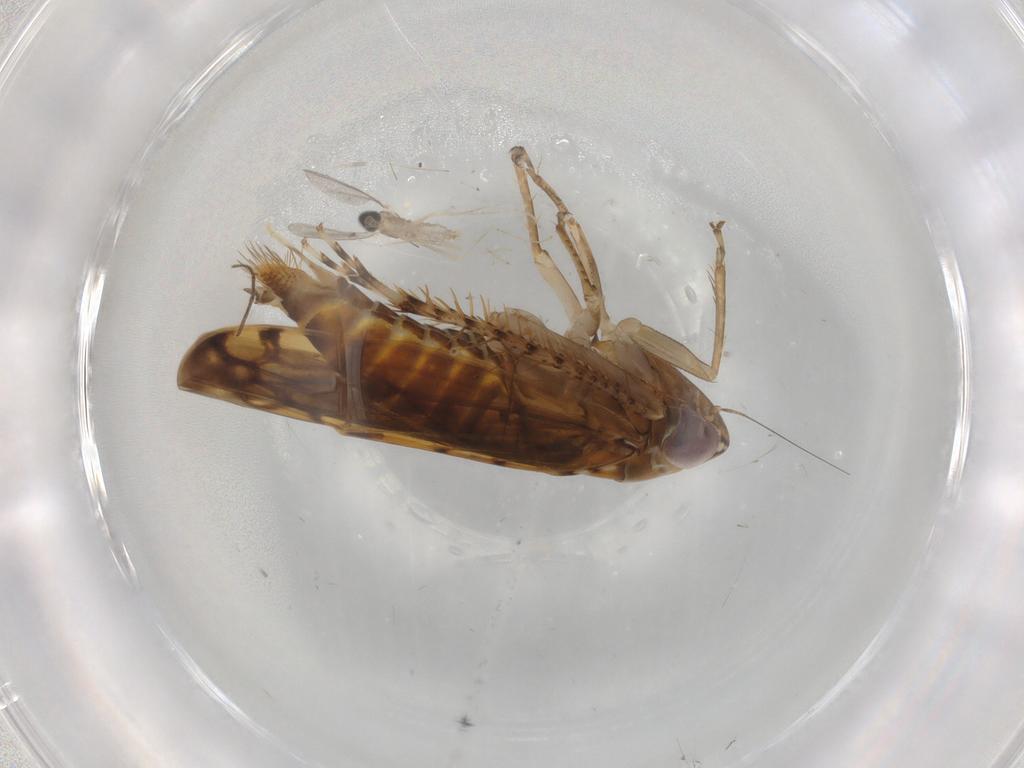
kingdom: Animalia
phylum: Arthropoda
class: Insecta
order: Hemiptera
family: Cicadellidae
